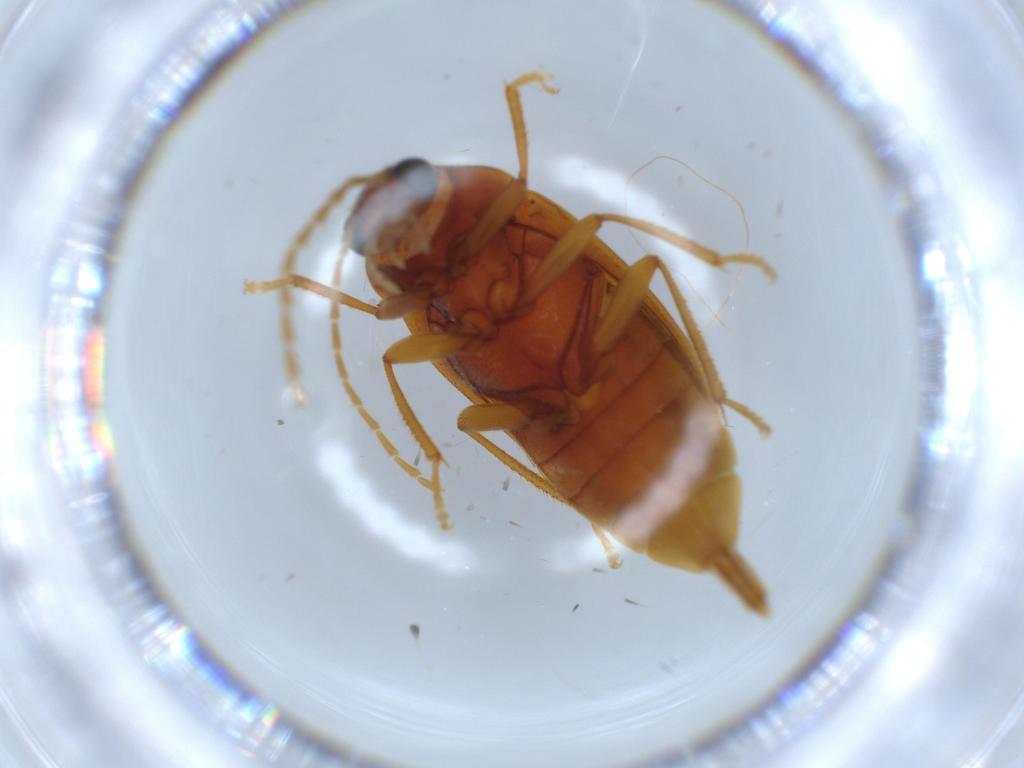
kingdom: Animalia
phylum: Arthropoda
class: Insecta
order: Coleoptera
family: Ptilodactylidae
